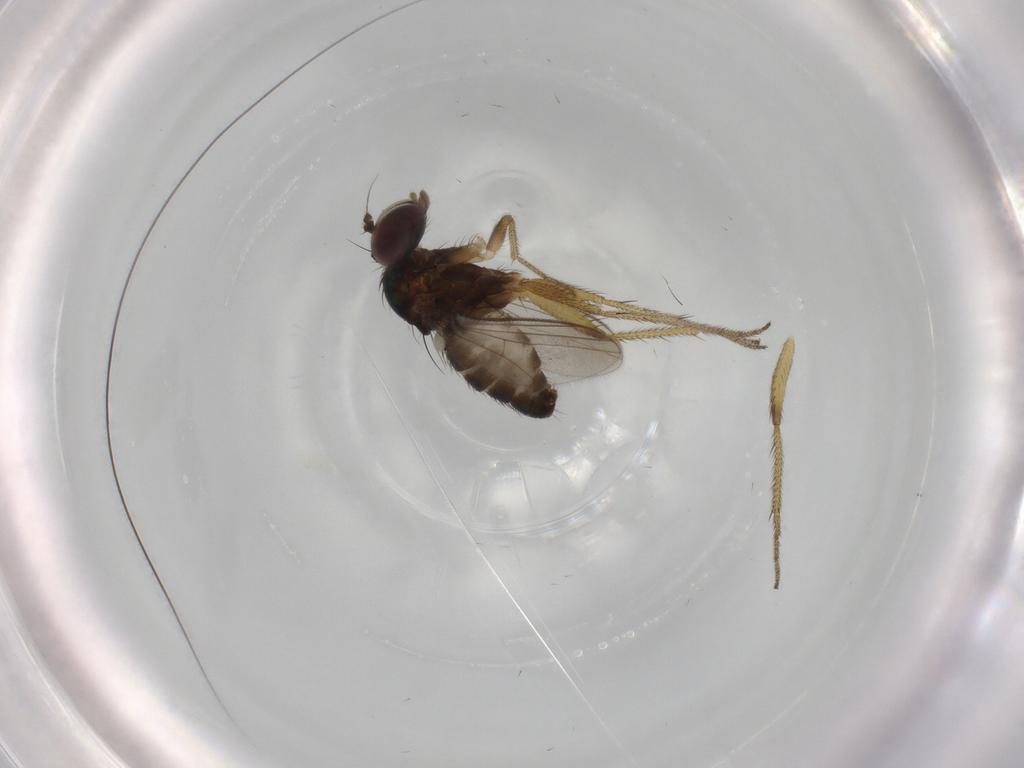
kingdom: Animalia
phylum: Arthropoda
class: Insecta
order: Diptera
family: Dolichopodidae
